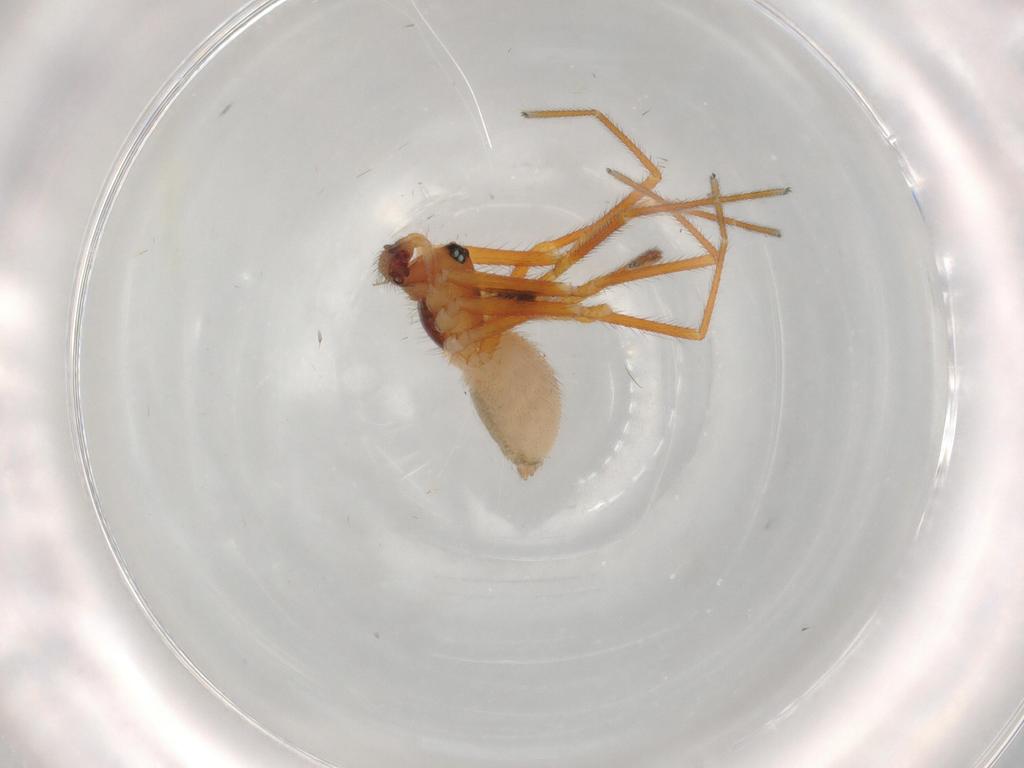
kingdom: Animalia
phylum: Arthropoda
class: Arachnida
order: Araneae
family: Linyphiidae
